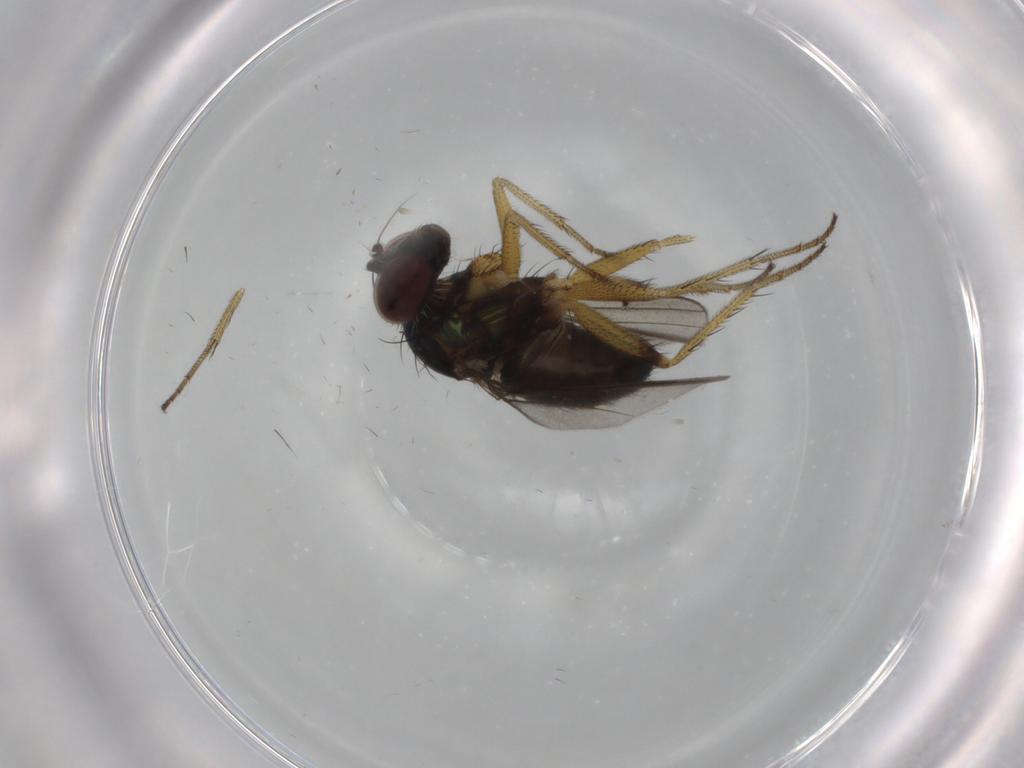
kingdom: Animalia
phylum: Arthropoda
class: Insecta
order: Diptera
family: Dolichopodidae
